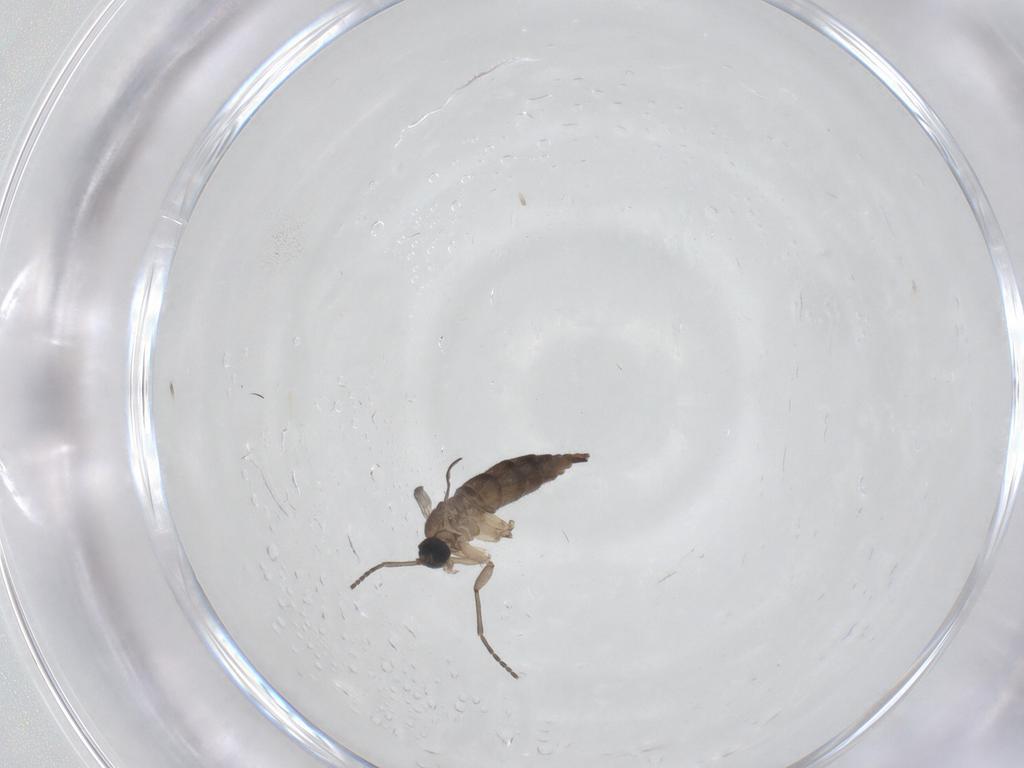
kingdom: Animalia
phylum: Arthropoda
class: Insecta
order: Diptera
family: Sciaridae
